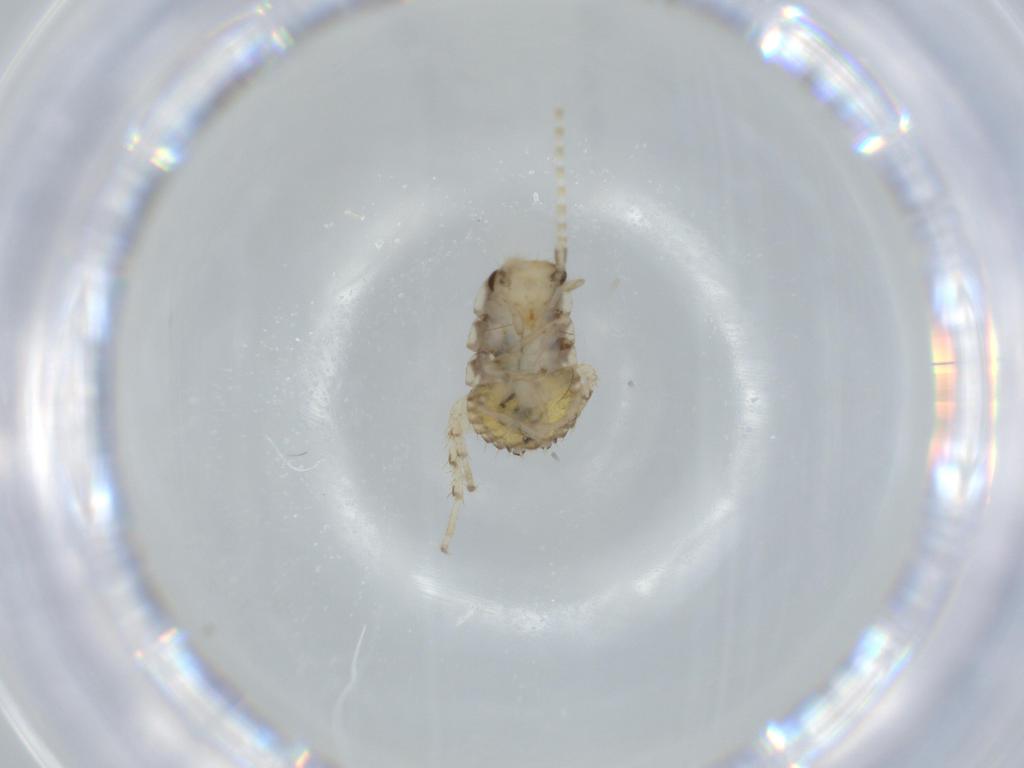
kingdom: Animalia
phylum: Arthropoda
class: Insecta
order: Blattodea
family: Ectobiidae
